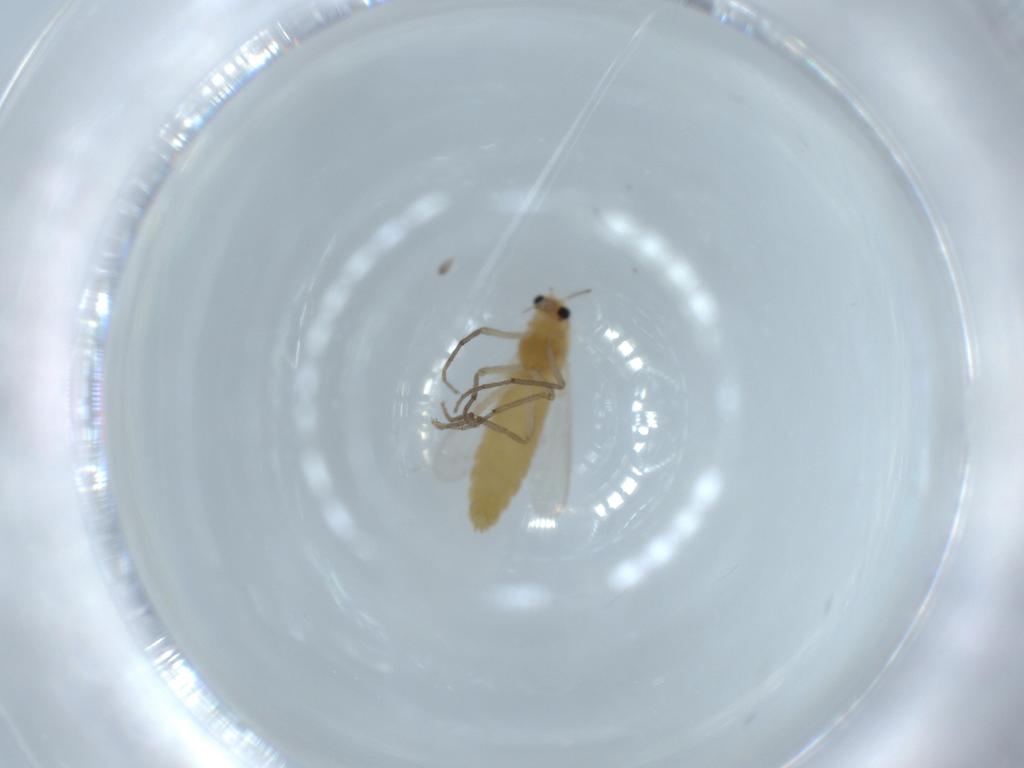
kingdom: Animalia
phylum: Arthropoda
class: Insecta
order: Diptera
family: Chironomidae
